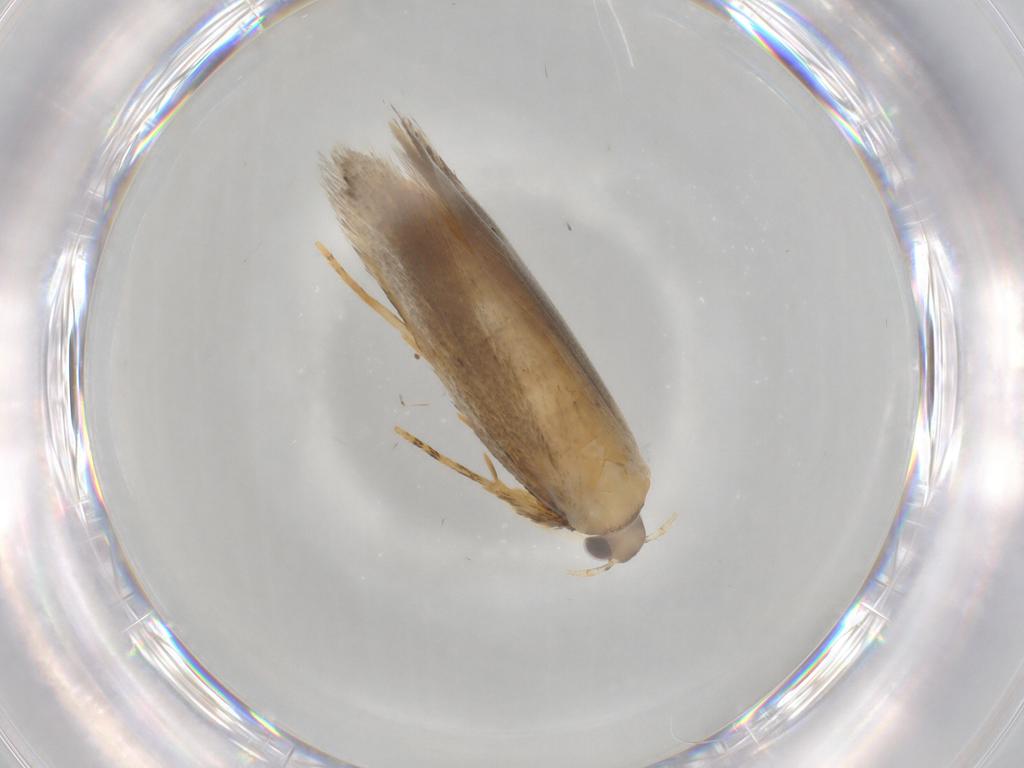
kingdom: Animalia
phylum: Arthropoda
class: Insecta
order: Lepidoptera
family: Autostichidae
